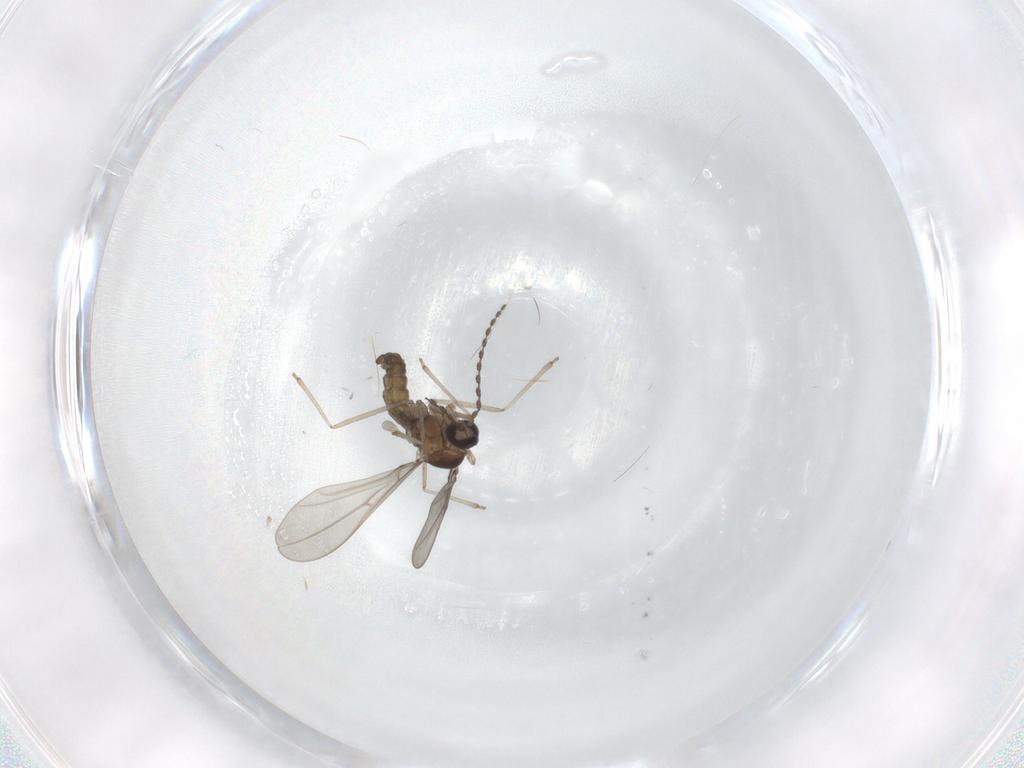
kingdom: Animalia
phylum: Arthropoda
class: Insecta
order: Diptera
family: Cecidomyiidae
